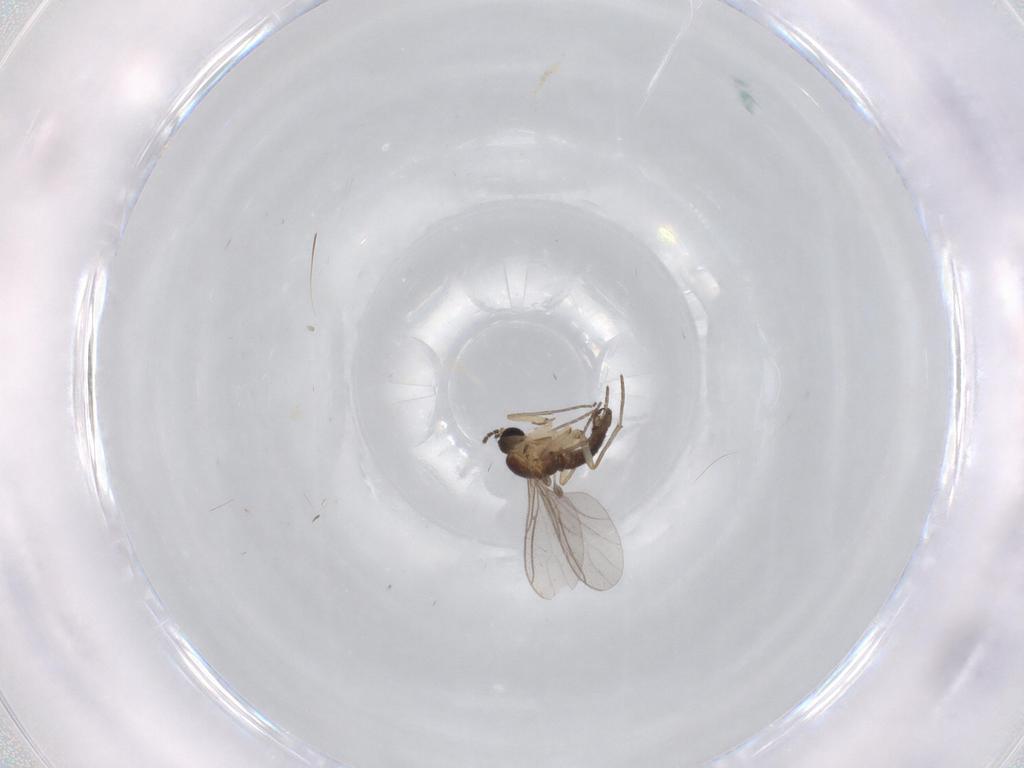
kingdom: Animalia
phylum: Arthropoda
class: Insecta
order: Diptera
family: Sciaridae
